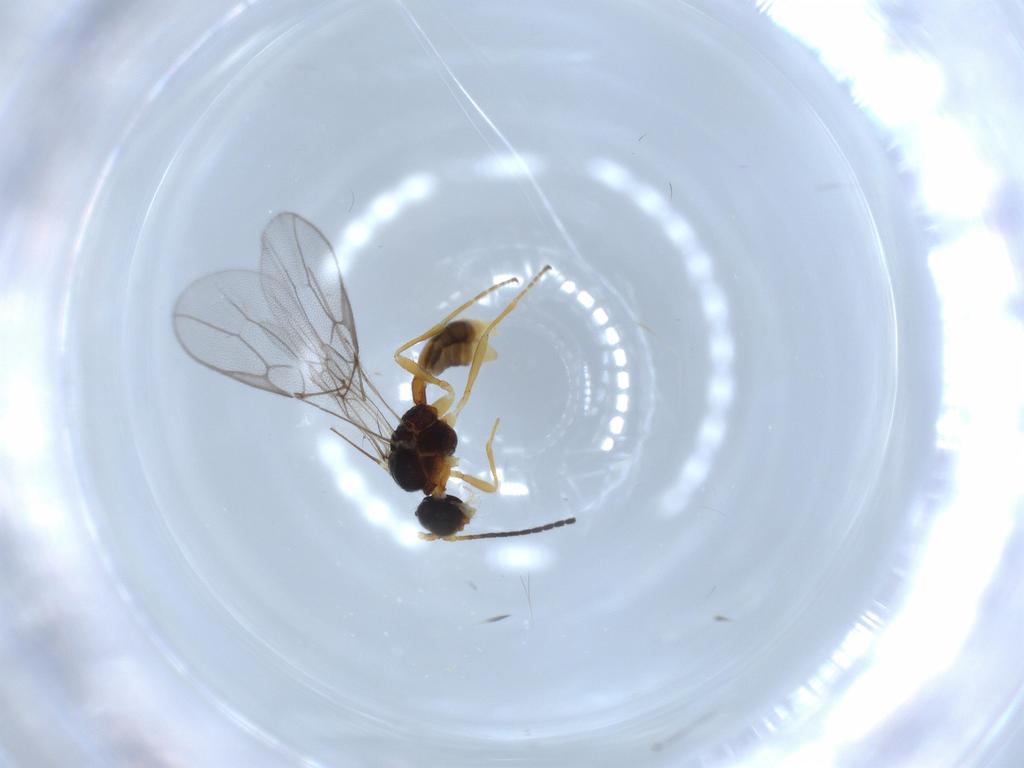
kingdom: Animalia
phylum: Arthropoda
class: Insecta
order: Hymenoptera
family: Braconidae
